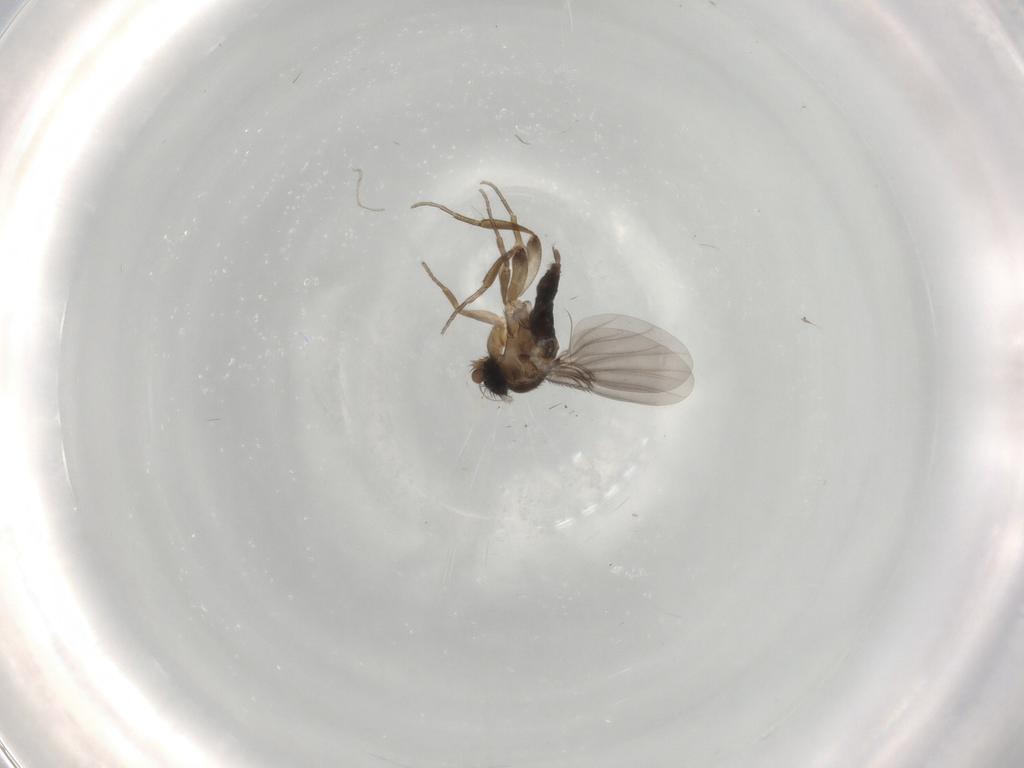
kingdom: Animalia
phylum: Arthropoda
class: Insecta
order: Diptera
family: Phoridae
